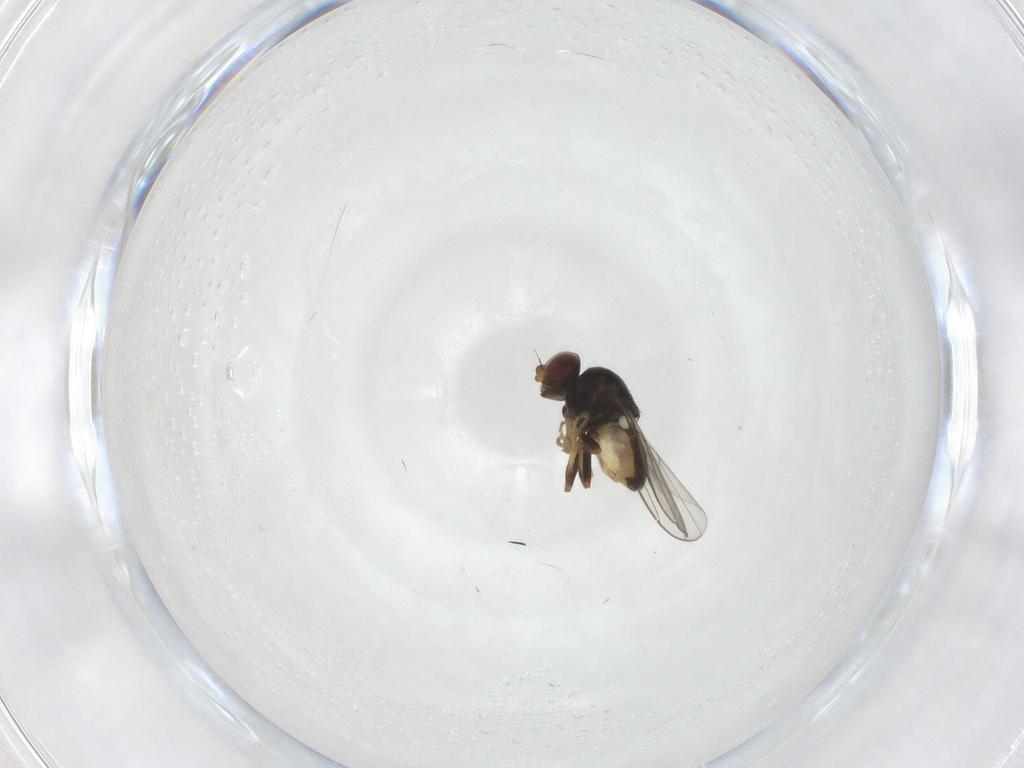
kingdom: Animalia
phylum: Arthropoda
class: Insecta
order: Diptera
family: Chloropidae
